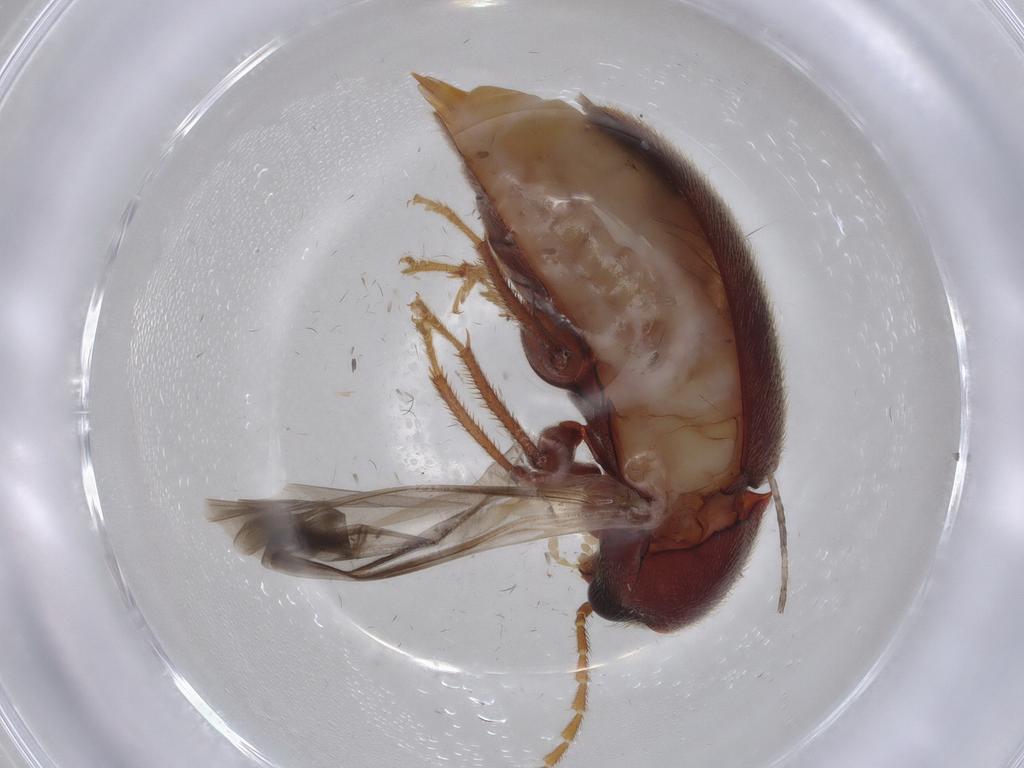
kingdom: Animalia
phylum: Arthropoda
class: Insecta
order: Coleoptera
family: Ptilodactylidae
